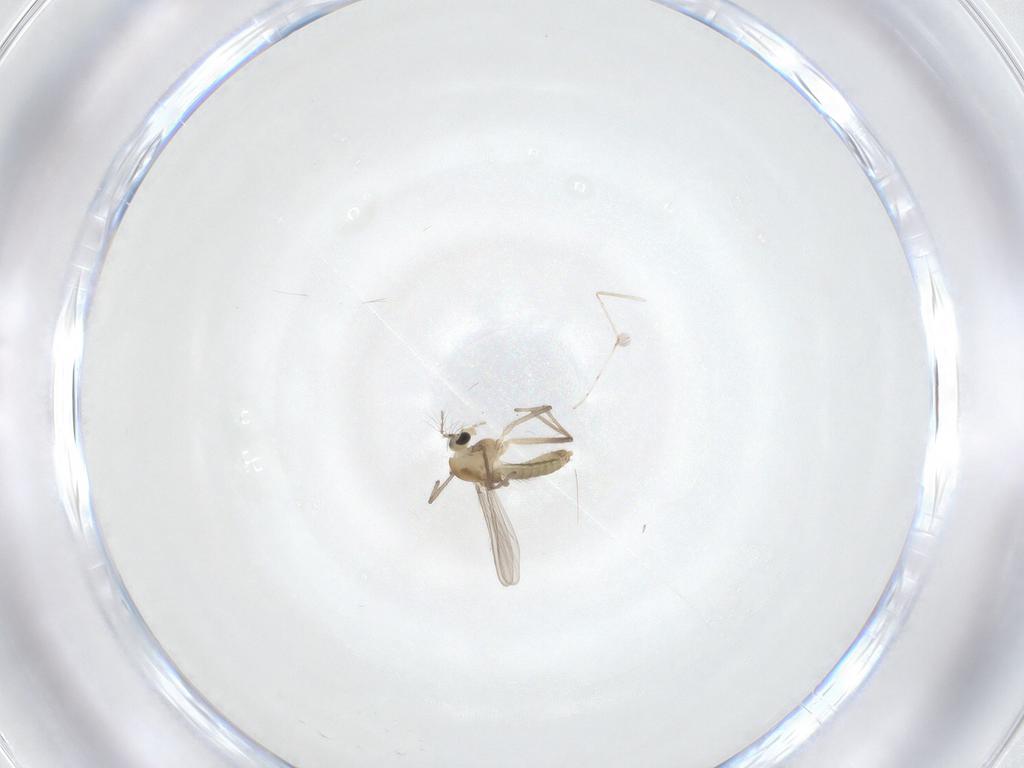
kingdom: Animalia
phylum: Arthropoda
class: Insecta
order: Diptera
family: Chironomidae
